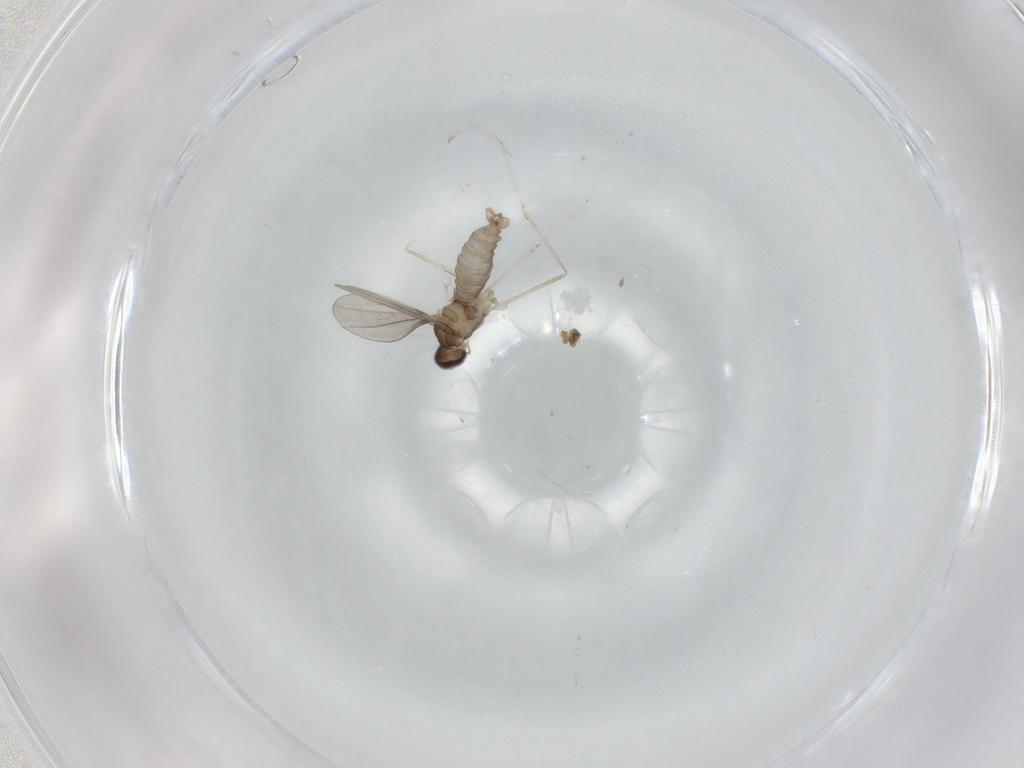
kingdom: Animalia
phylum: Arthropoda
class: Insecta
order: Diptera
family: Cecidomyiidae
